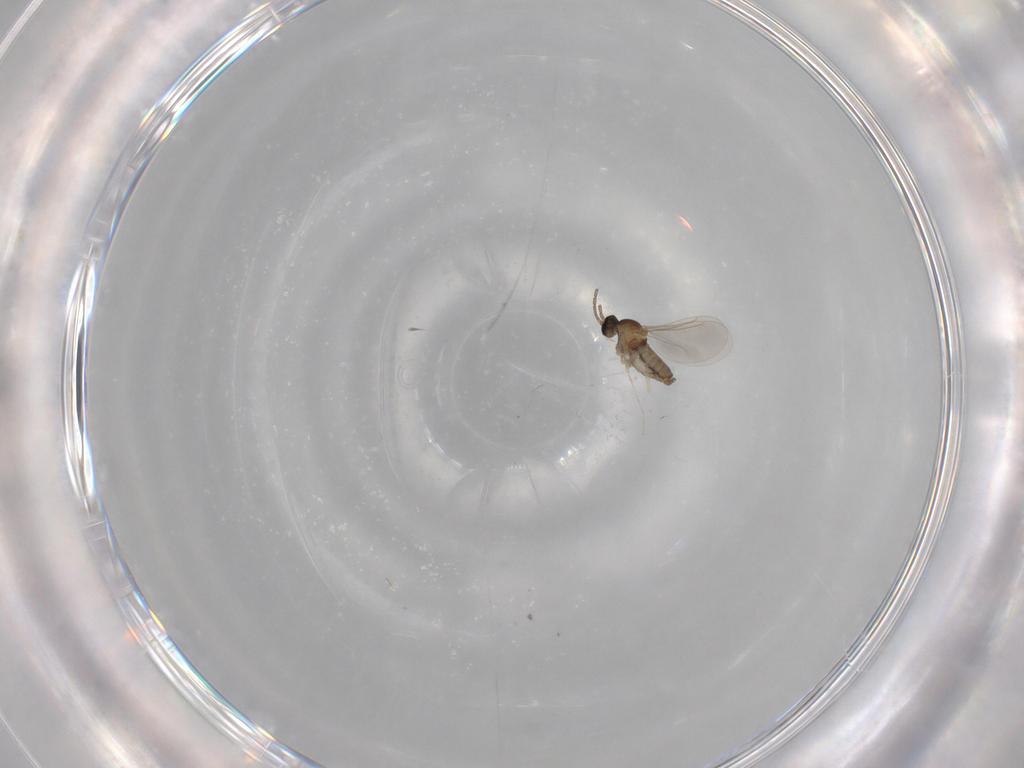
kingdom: Animalia
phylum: Arthropoda
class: Insecta
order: Diptera
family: Cecidomyiidae
